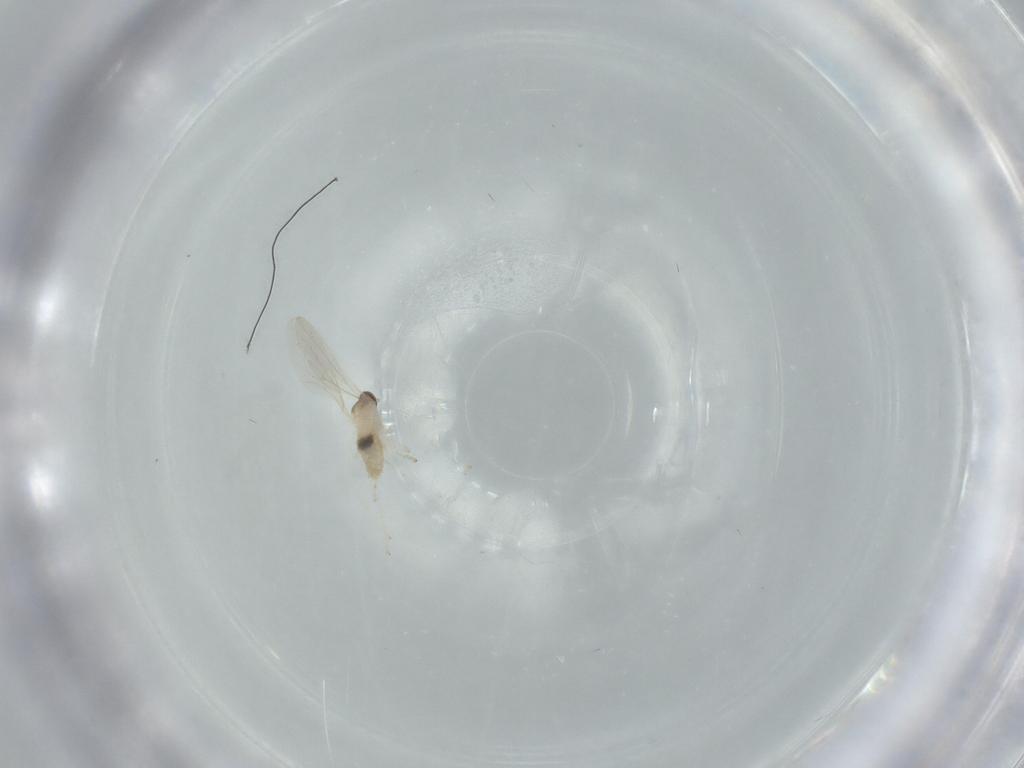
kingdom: Animalia
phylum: Arthropoda
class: Insecta
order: Diptera
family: Cecidomyiidae
